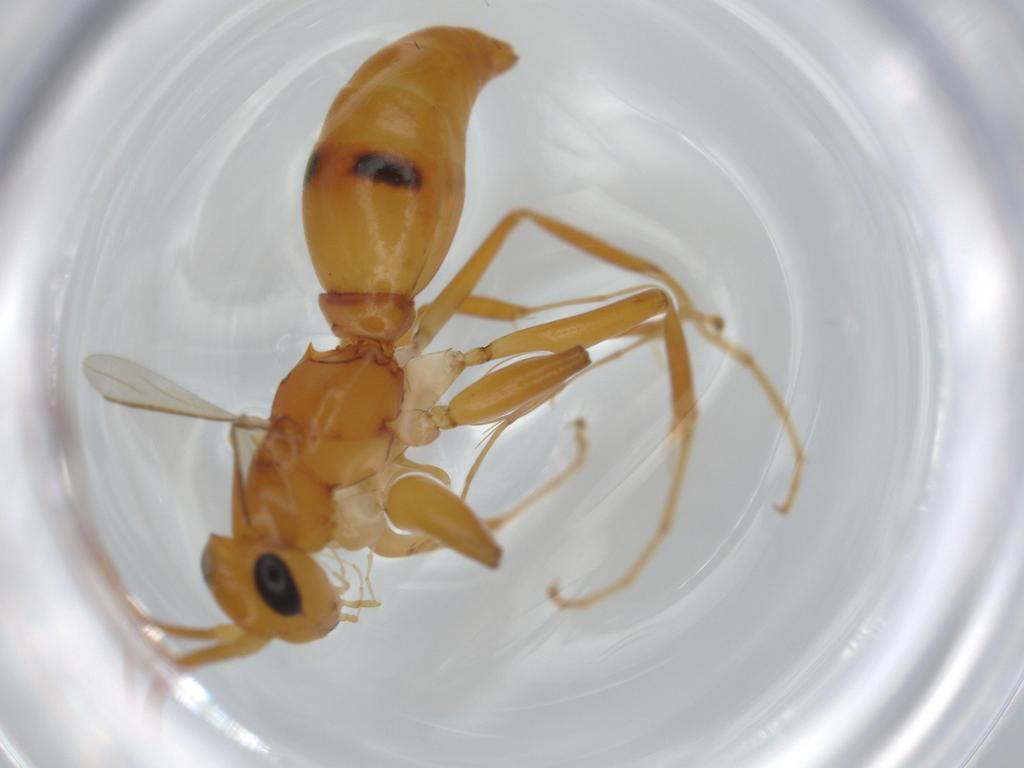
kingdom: Animalia
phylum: Arthropoda
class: Insecta
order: Hymenoptera
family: Rhopalosomatidae
